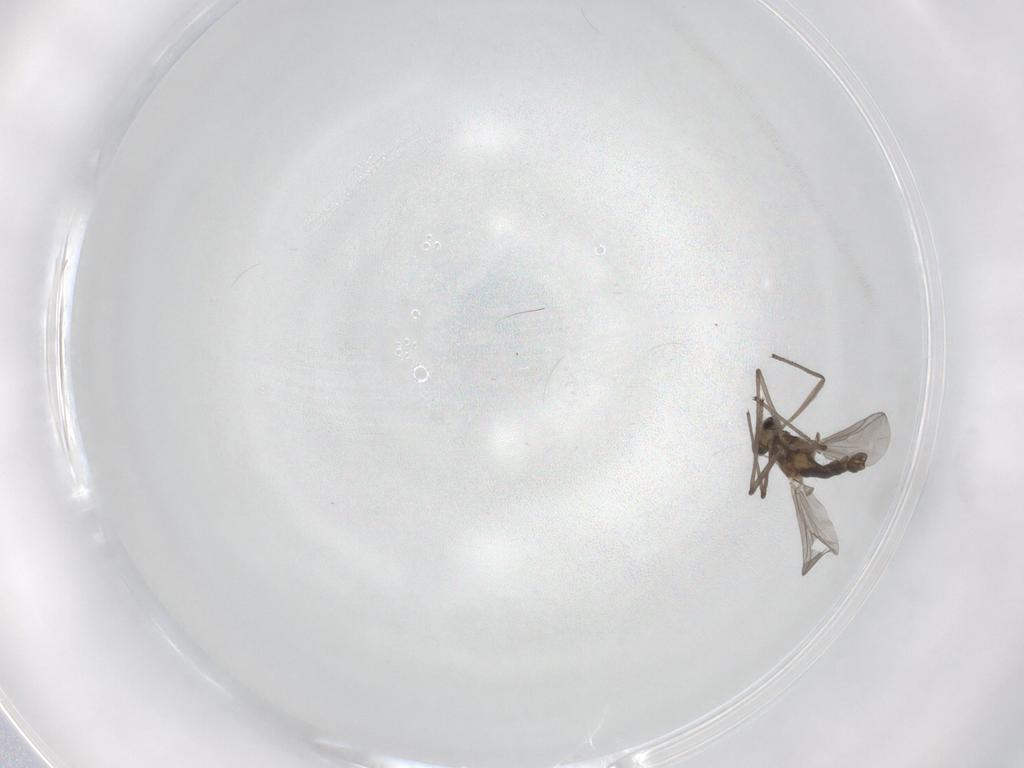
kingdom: Animalia
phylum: Arthropoda
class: Insecta
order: Diptera
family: Chironomidae
